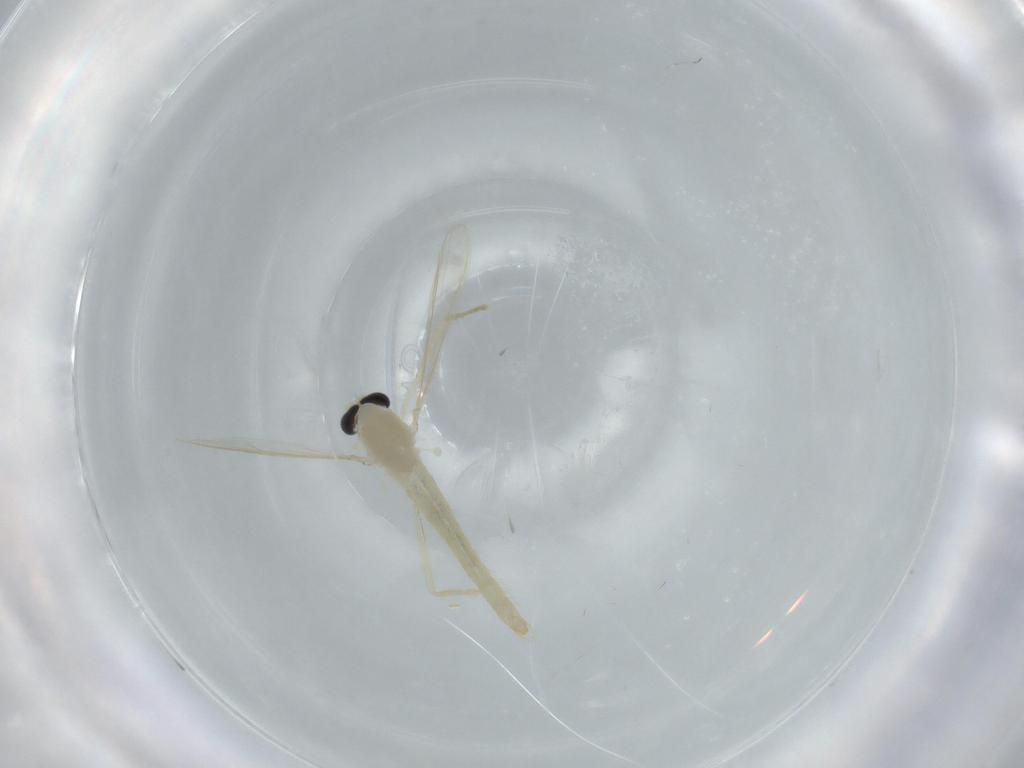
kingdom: Animalia
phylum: Arthropoda
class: Insecta
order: Diptera
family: Chironomidae
